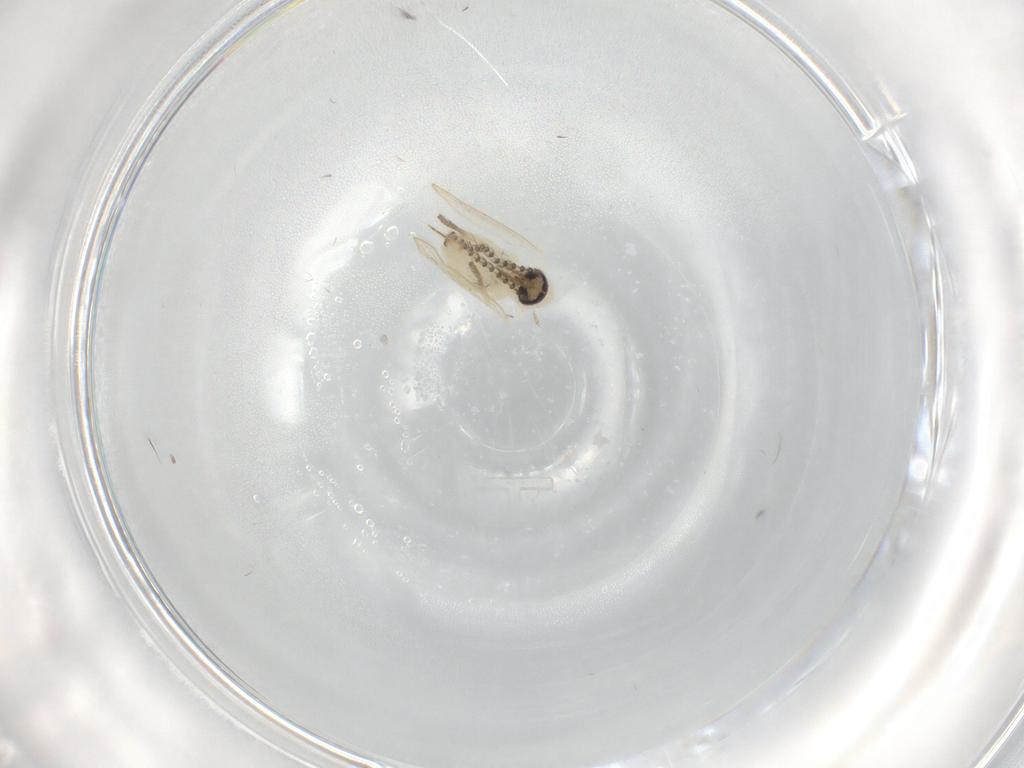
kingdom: Animalia
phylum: Arthropoda
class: Insecta
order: Diptera
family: Psychodidae
